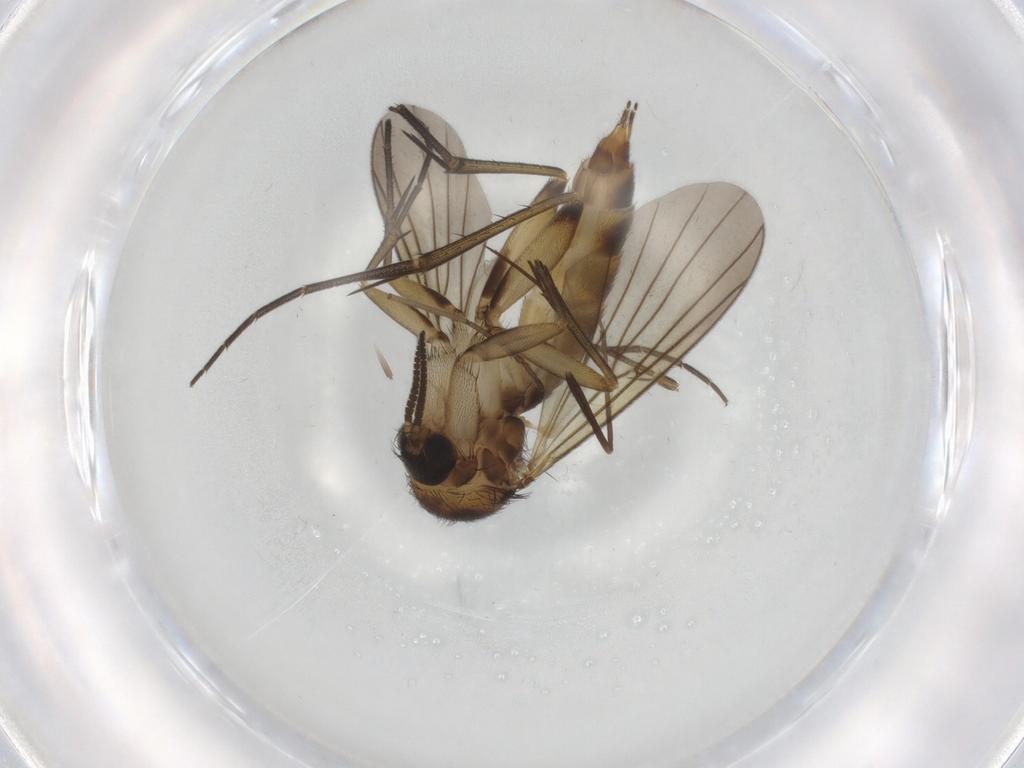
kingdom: Animalia
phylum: Arthropoda
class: Insecta
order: Diptera
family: Chironomidae
